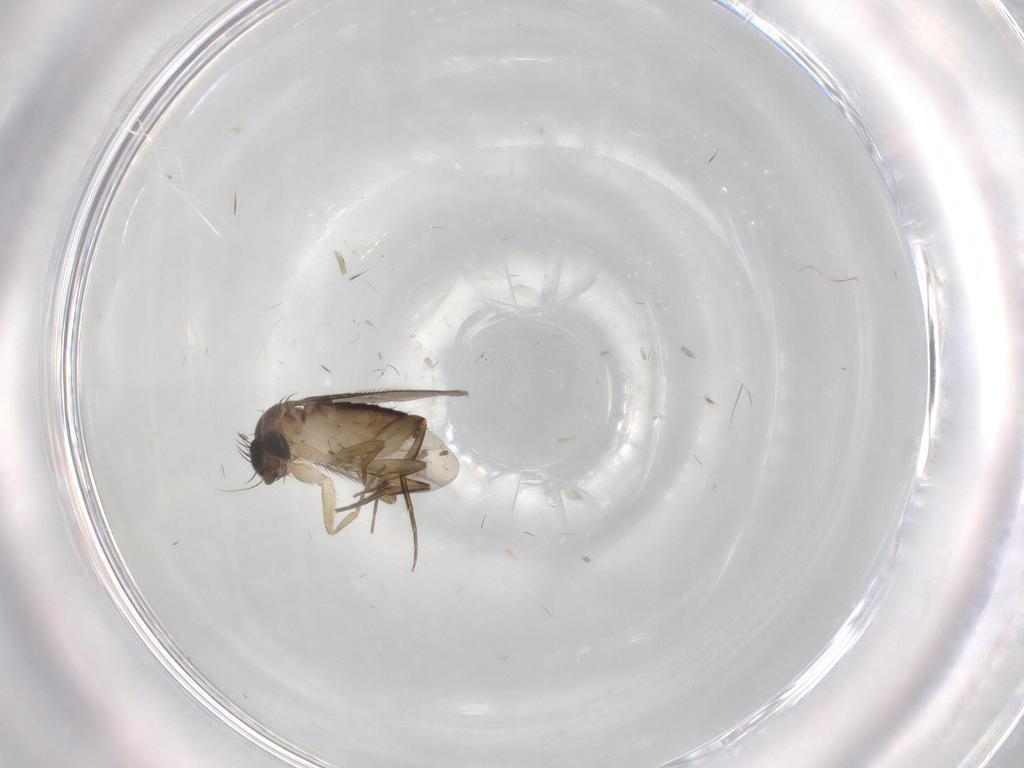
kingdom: Animalia
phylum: Arthropoda
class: Insecta
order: Diptera
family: Phoridae
